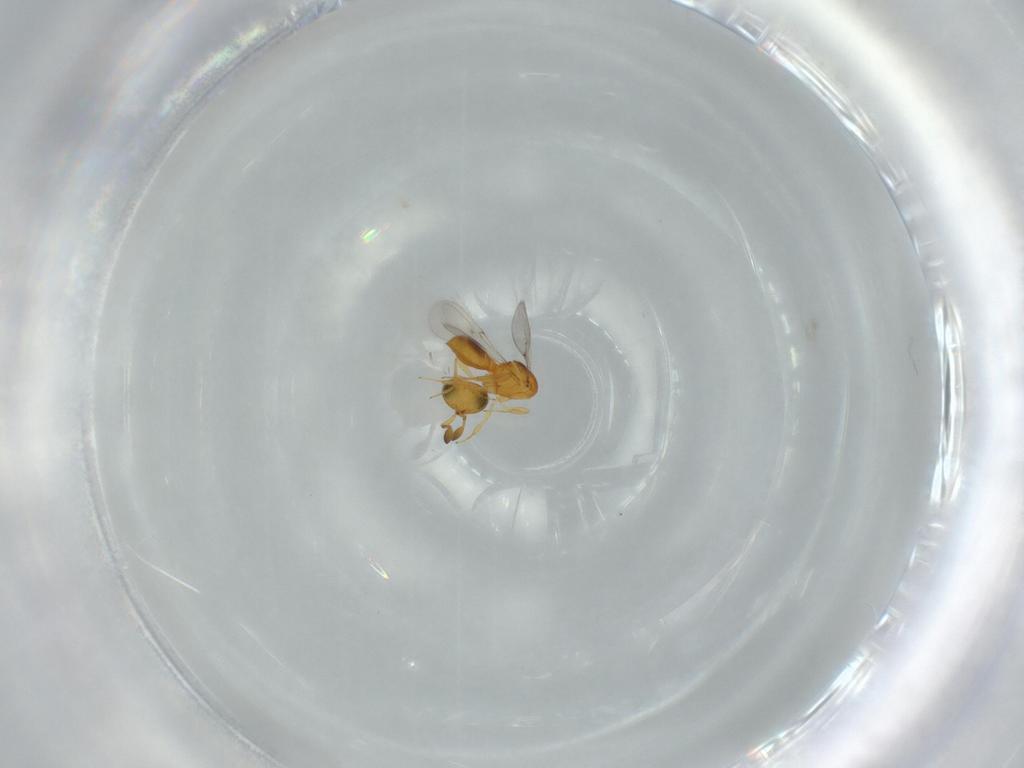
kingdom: Animalia
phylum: Arthropoda
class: Insecta
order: Hymenoptera
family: Scelionidae
